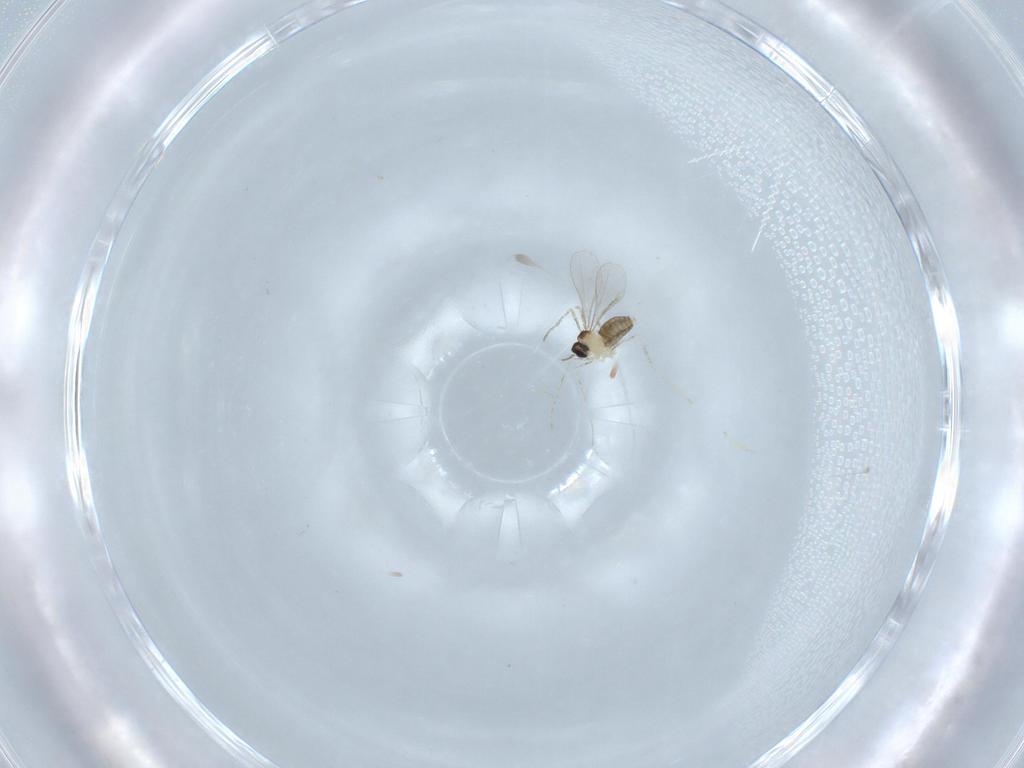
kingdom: Animalia
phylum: Arthropoda
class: Insecta
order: Diptera
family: Cecidomyiidae
